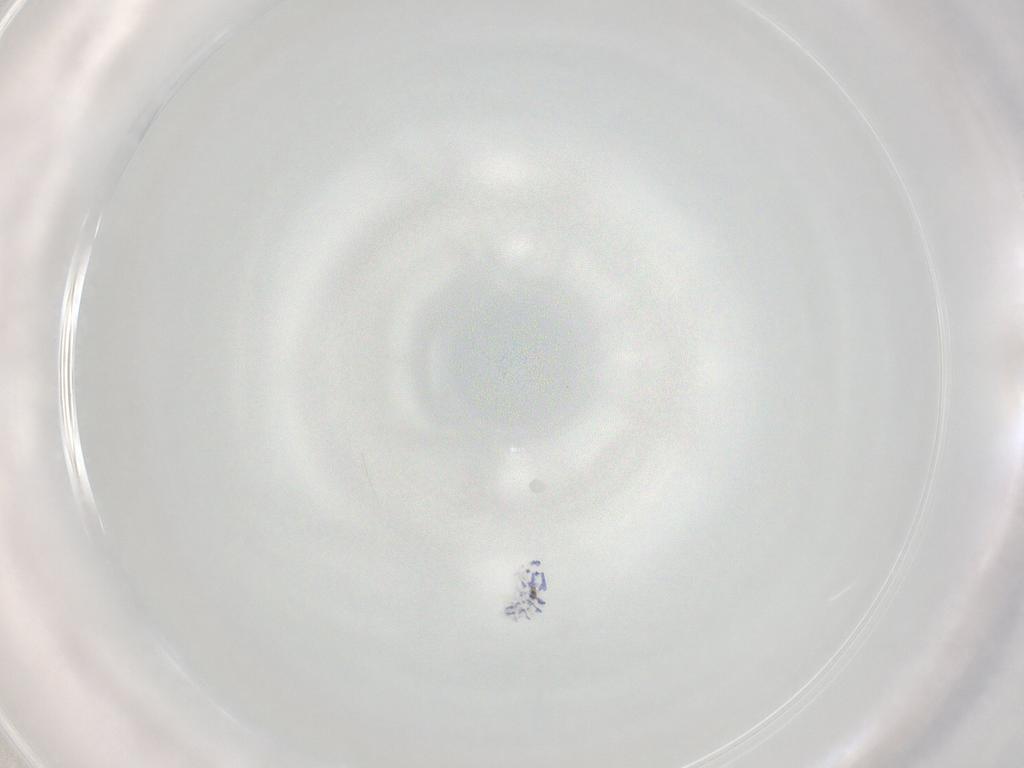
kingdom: Animalia
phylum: Arthropoda
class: Collembola
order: Entomobryomorpha
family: Entomobryidae
